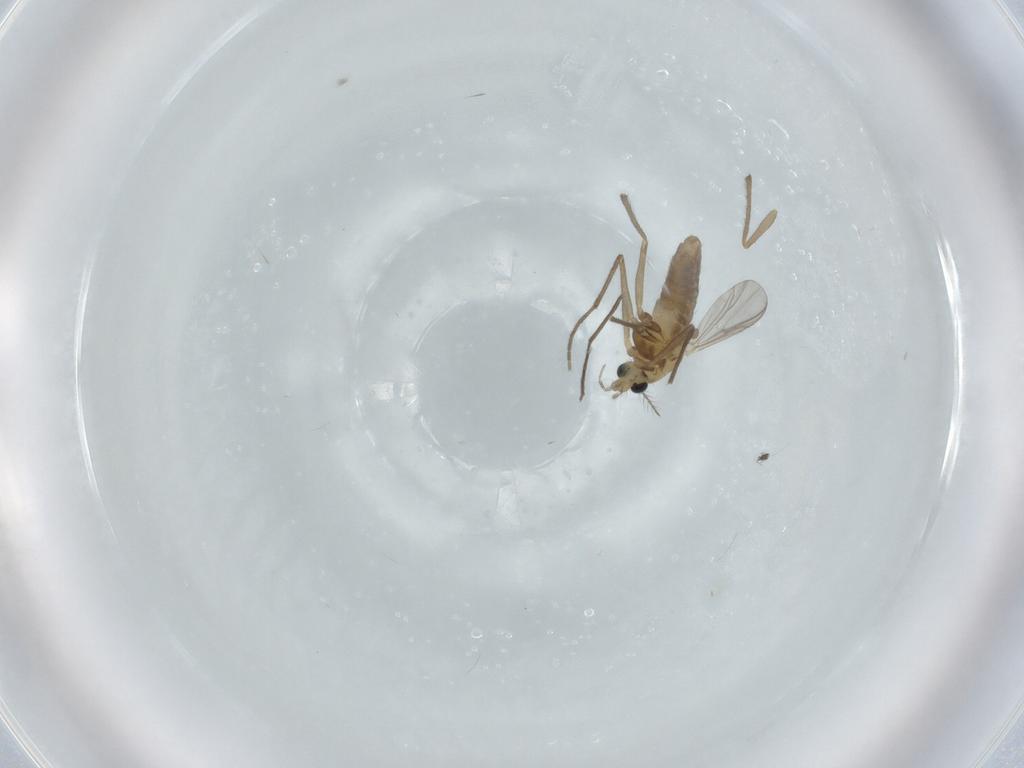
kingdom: Animalia
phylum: Arthropoda
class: Insecta
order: Diptera
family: Chironomidae
